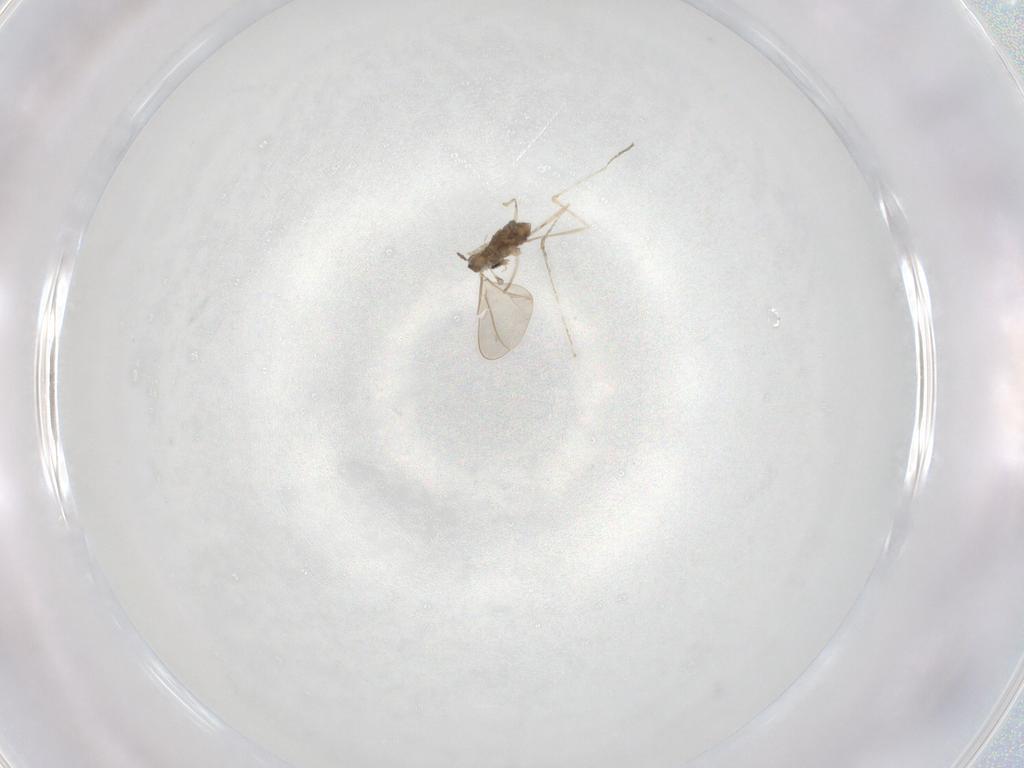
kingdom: Animalia
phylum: Arthropoda
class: Insecta
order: Diptera
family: Cecidomyiidae
